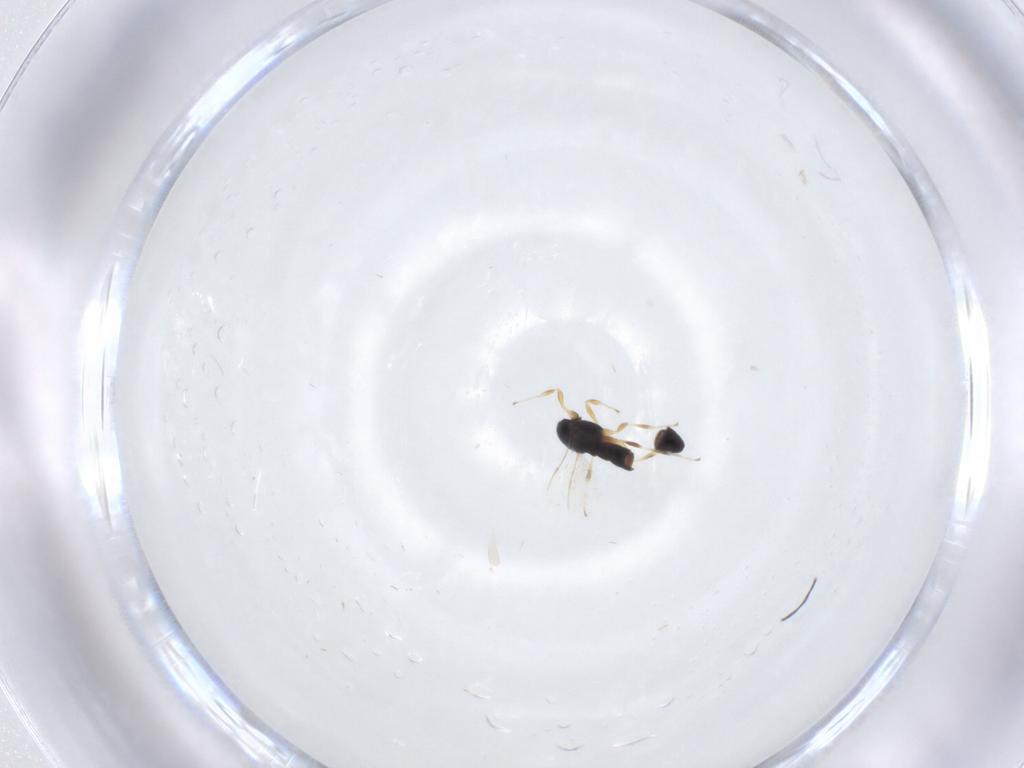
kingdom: Animalia
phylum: Arthropoda
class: Insecta
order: Hymenoptera
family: Scelionidae
